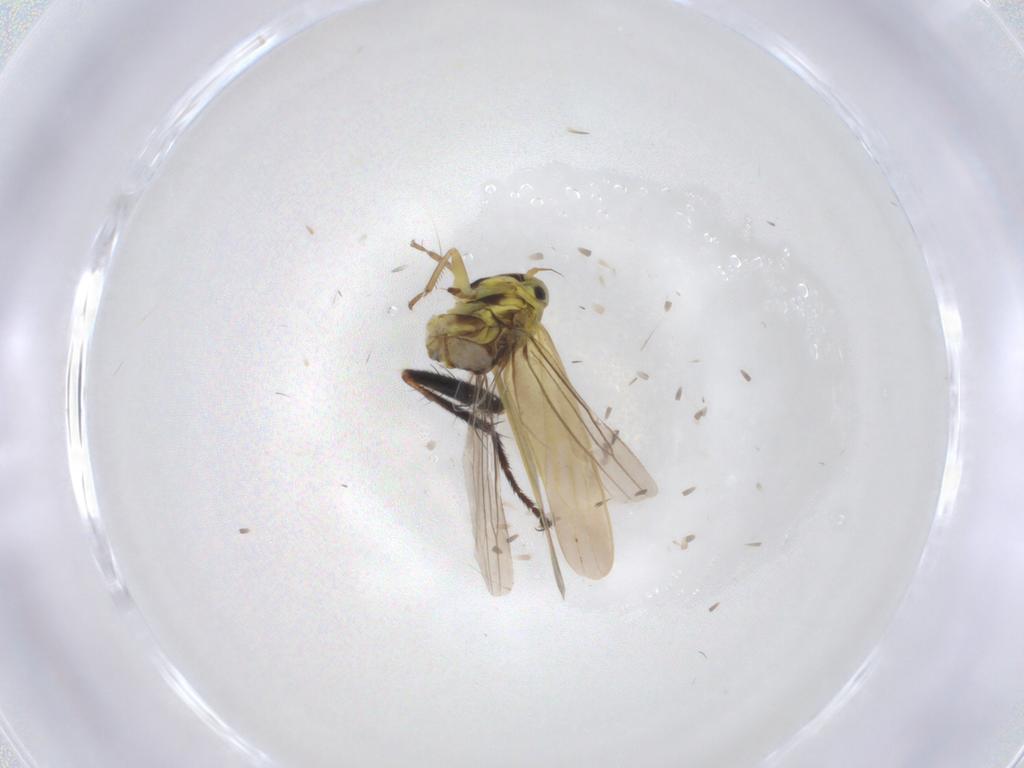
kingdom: Animalia
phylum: Arthropoda
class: Insecta
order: Hemiptera
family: Cicadellidae
